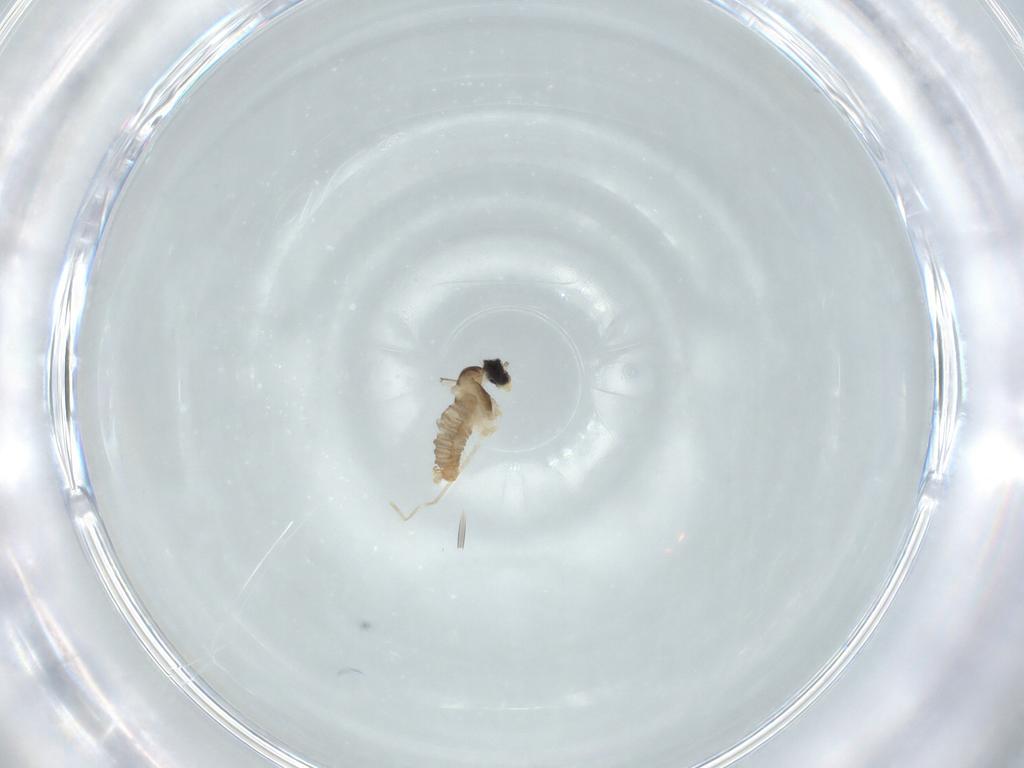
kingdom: Animalia
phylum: Arthropoda
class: Insecta
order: Diptera
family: Cecidomyiidae
